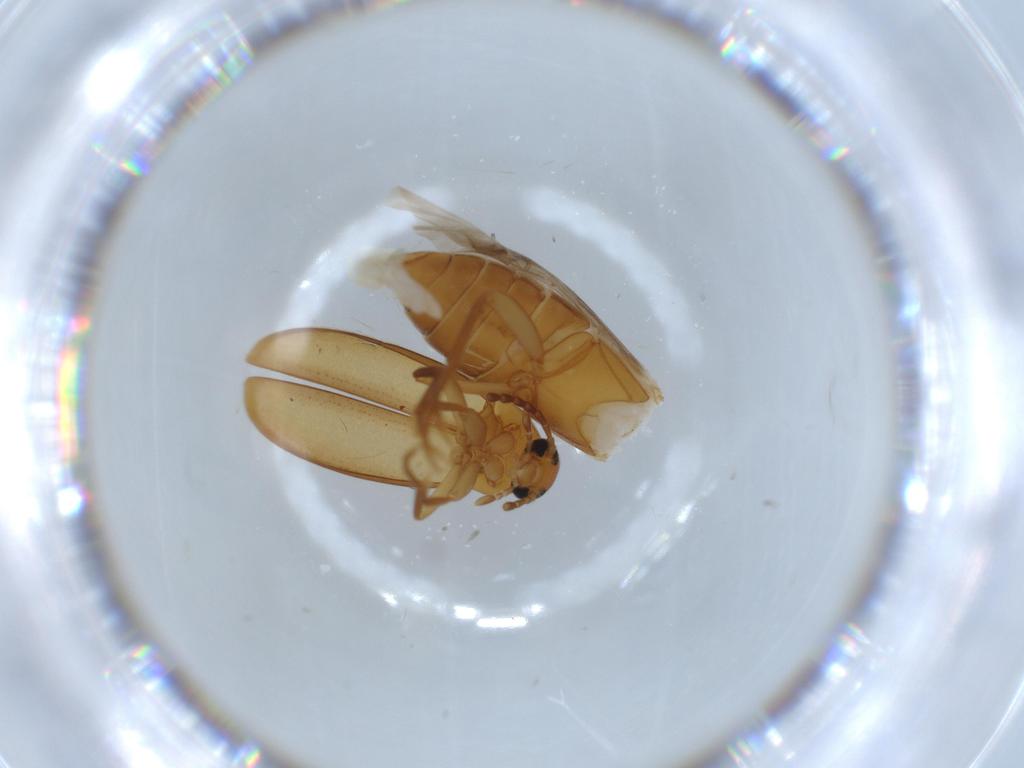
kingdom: Animalia
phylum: Arthropoda
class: Insecta
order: Coleoptera
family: Scraptiidae
